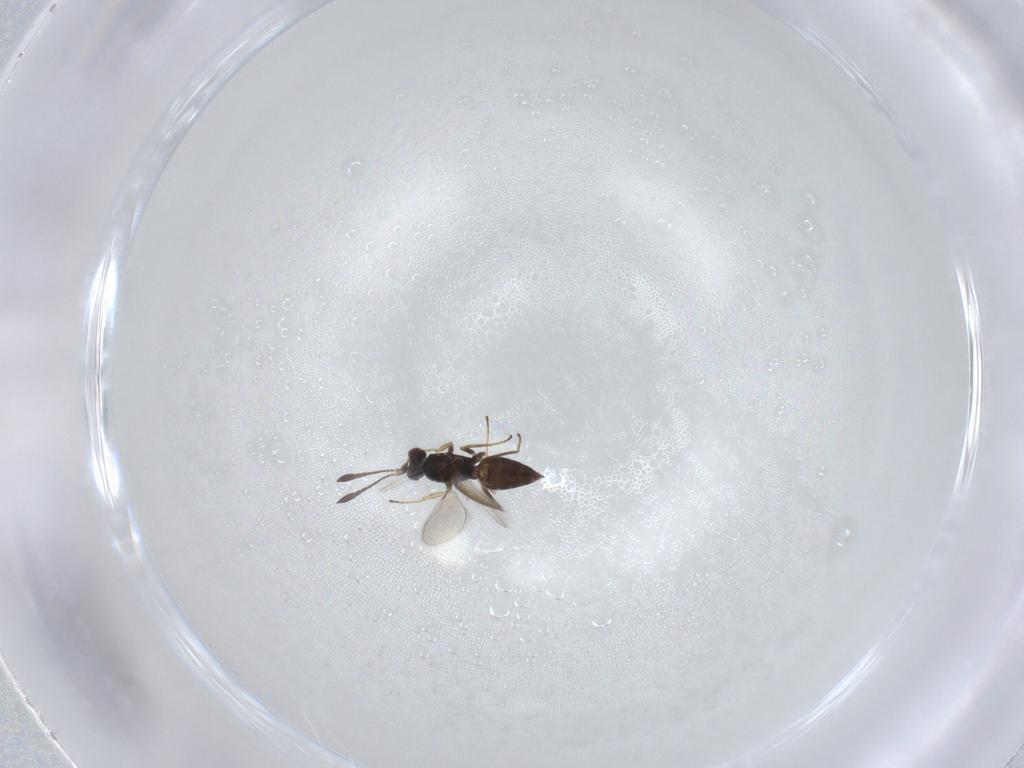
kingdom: Animalia
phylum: Arthropoda
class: Insecta
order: Hymenoptera
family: Mymaridae
